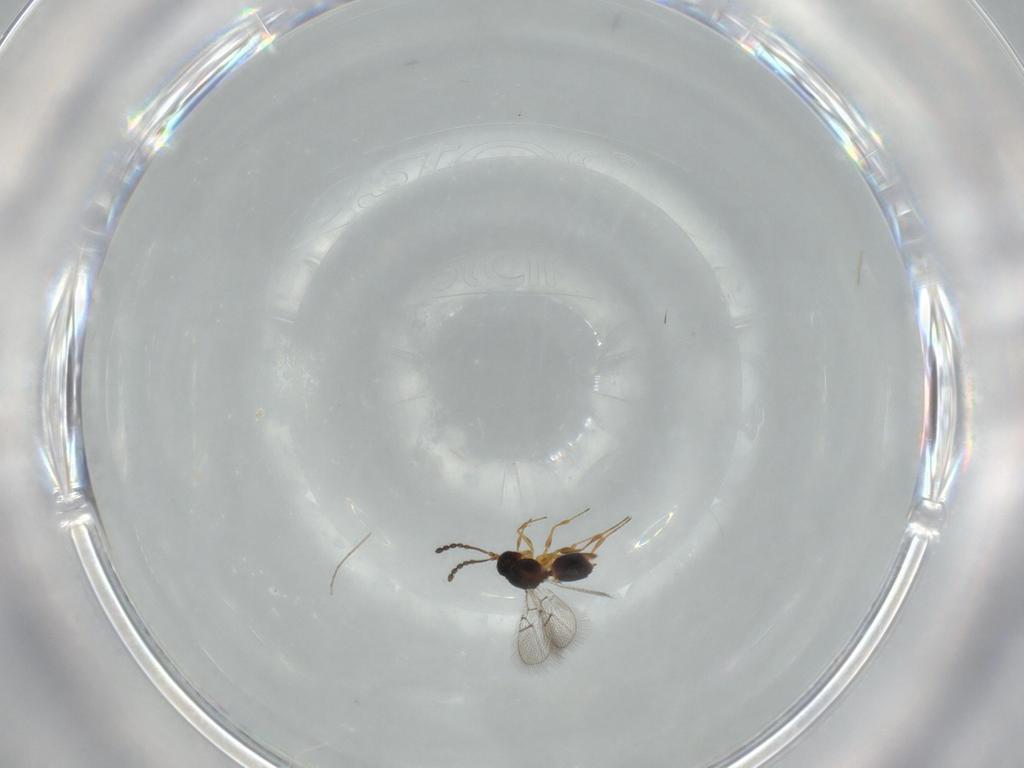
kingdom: Animalia
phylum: Arthropoda
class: Insecta
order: Hymenoptera
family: Figitidae
